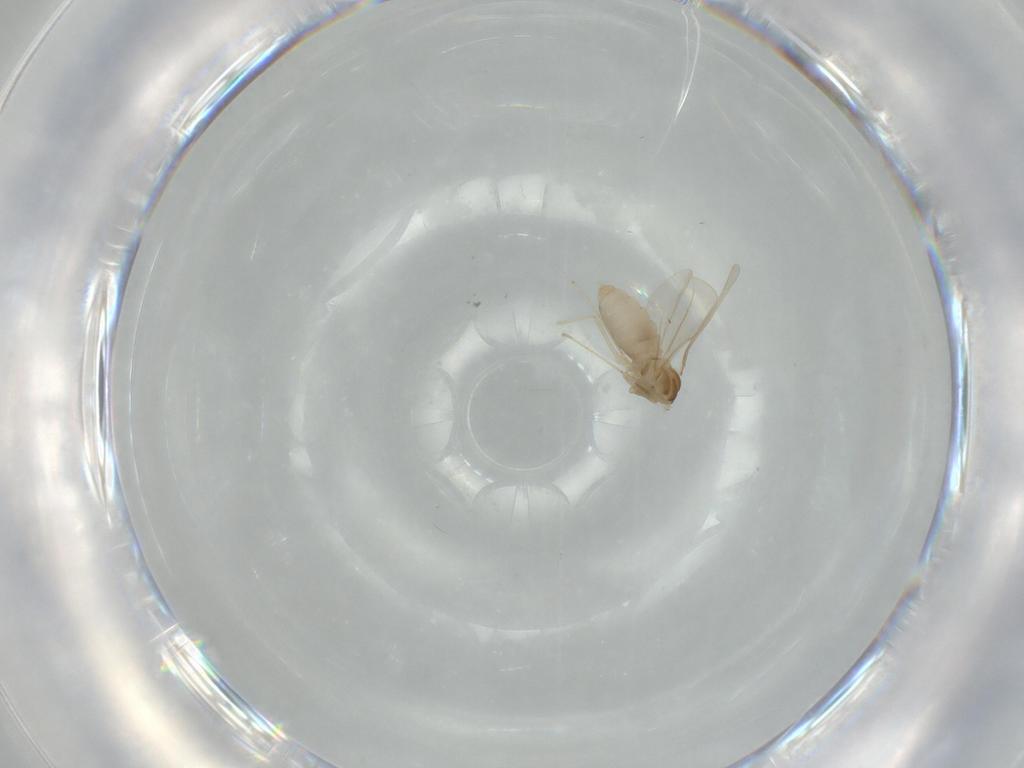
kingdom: Animalia
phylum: Arthropoda
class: Insecta
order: Diptera
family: Cecidomyiidae
